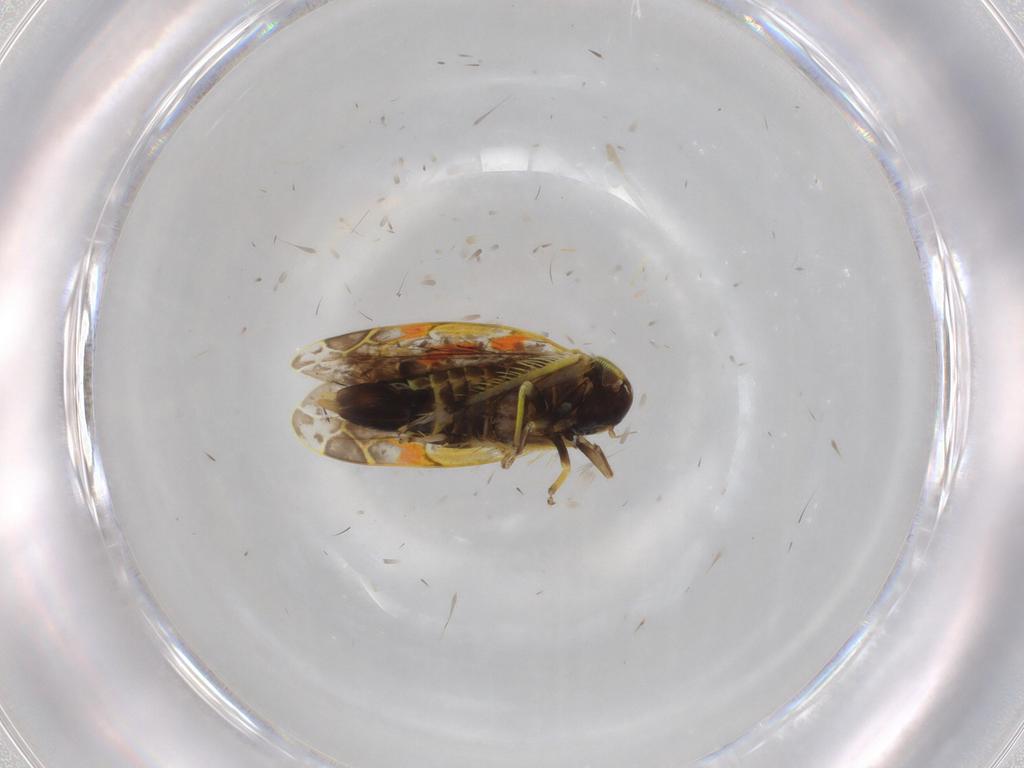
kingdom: Animalia
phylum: Arthropoda
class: Insecta
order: Hemiptera
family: Cicadellidae
